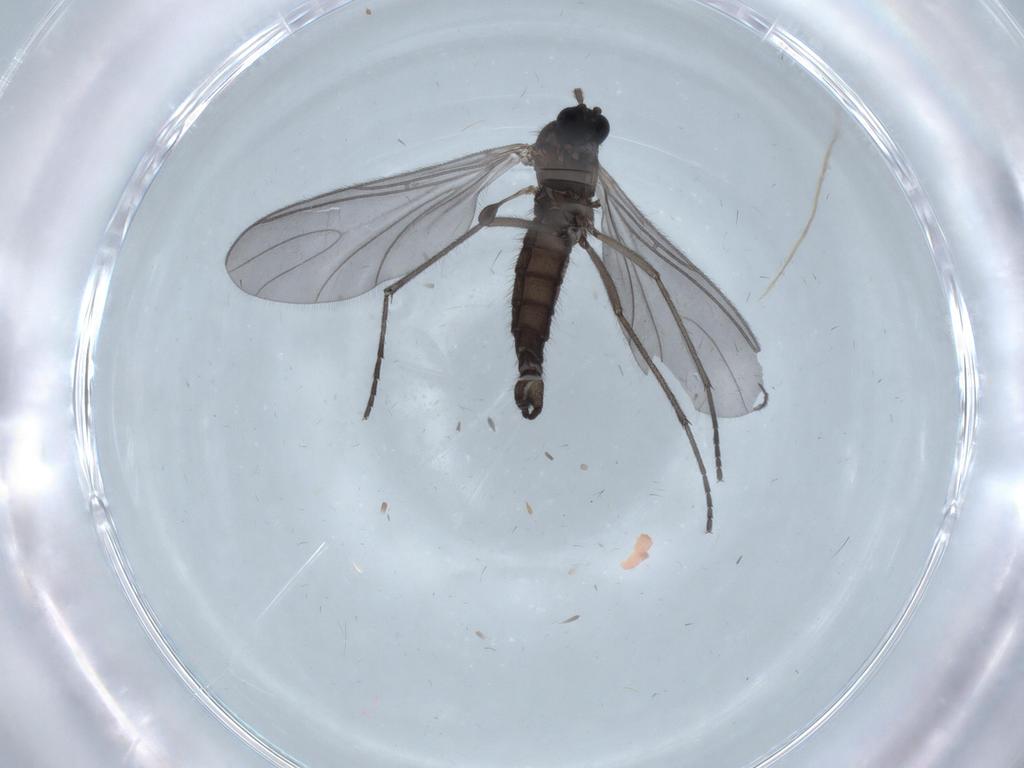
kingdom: Animalia
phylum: Arthropoda
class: Insecta
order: Diptera
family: Sciaridae
